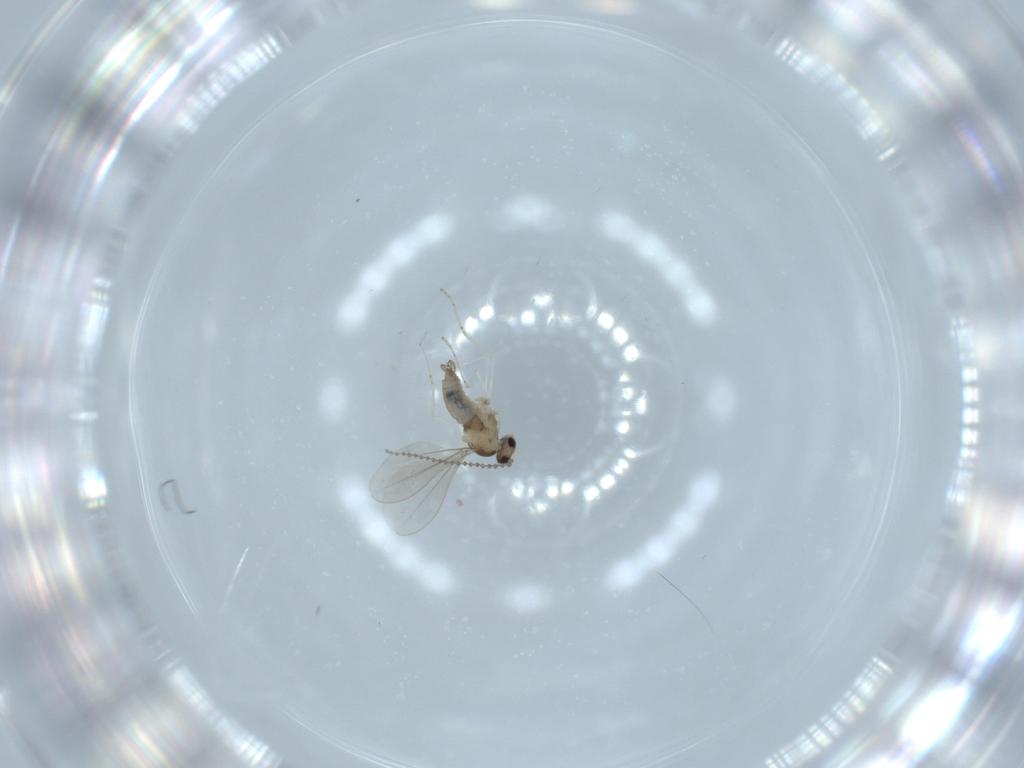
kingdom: Animalia
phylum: Arthropoda
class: Insecta
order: Diptera
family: Cecidomyiidae
